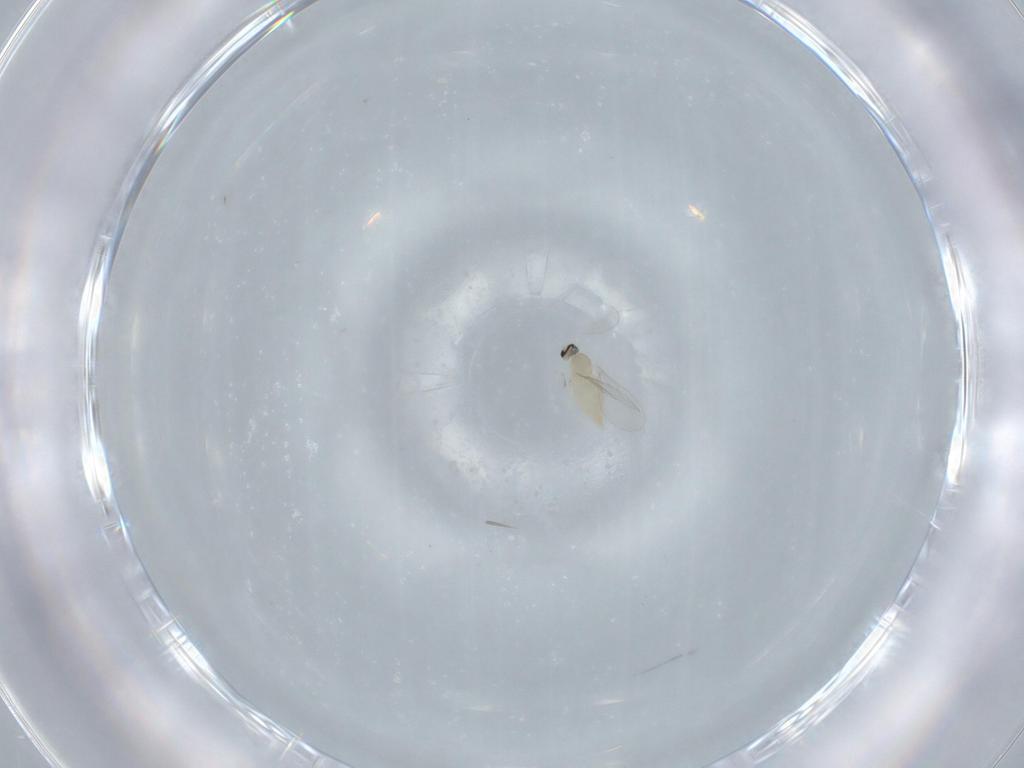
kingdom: Animalia
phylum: Arthropoda
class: Insecta
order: Diptera
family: Cecidomyiidae
